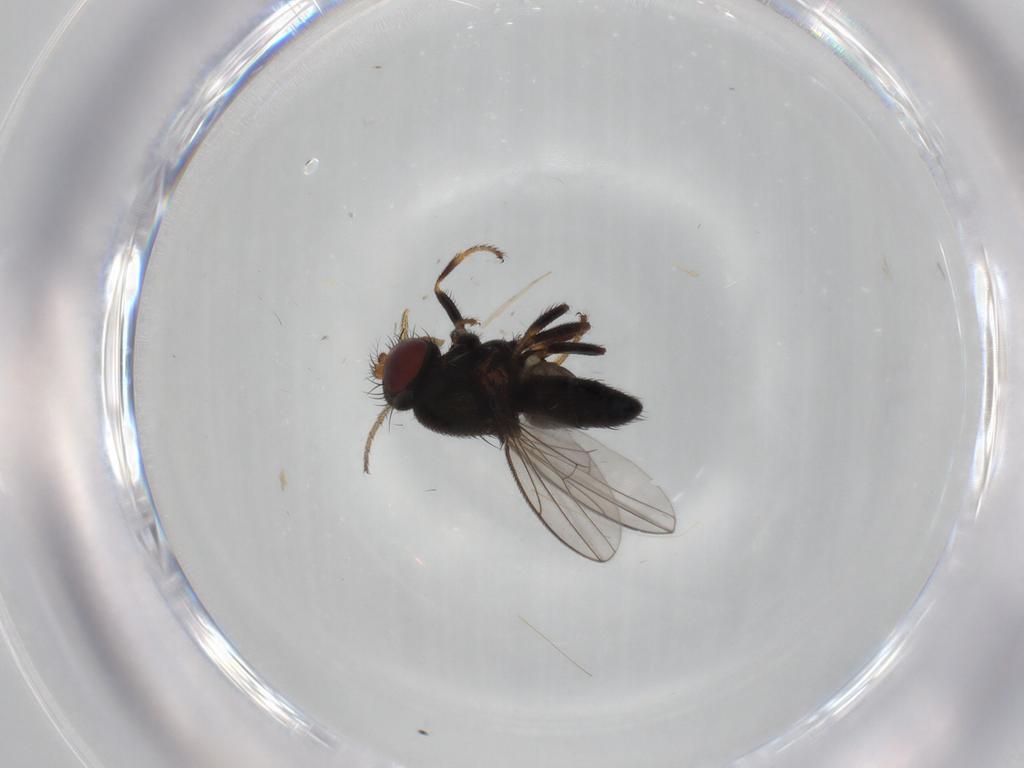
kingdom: Animalia
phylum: Arthropoda
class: Insecta
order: Diptera
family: Ephydridae
